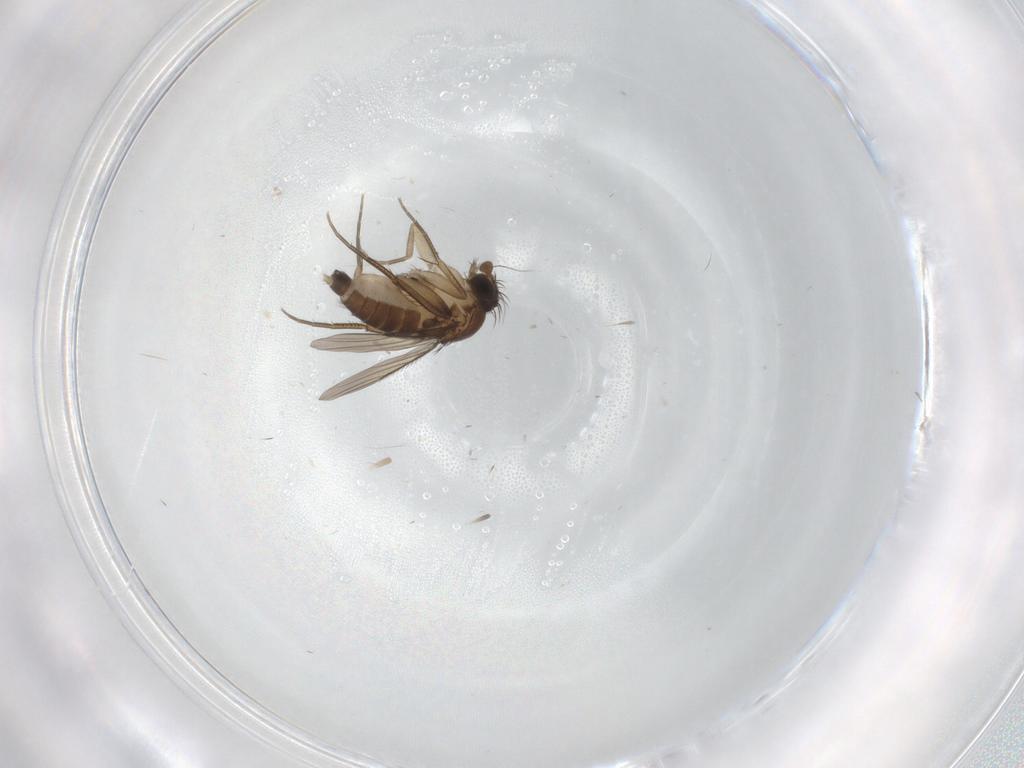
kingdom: Animalia
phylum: Arthropoda
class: Insecta
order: Diptera
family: Phoridae
